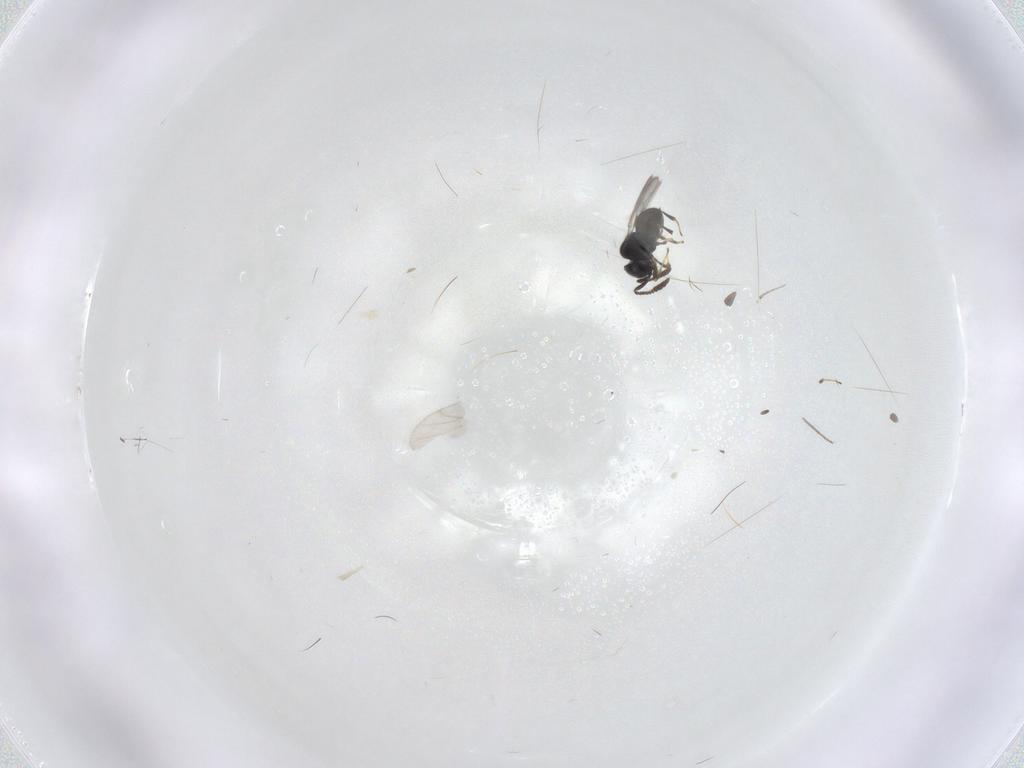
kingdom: Animalia
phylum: Arthropoda
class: Insecta
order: Hymenoptera
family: Scelionidae
